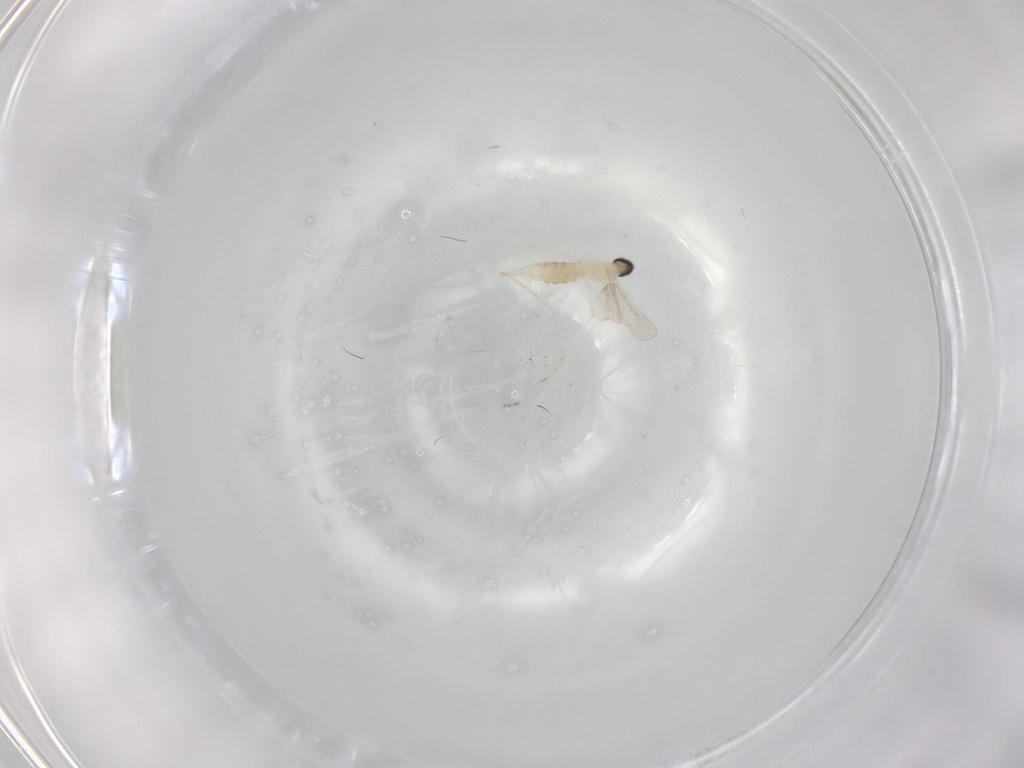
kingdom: Animalia
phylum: Arthropoda
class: Insecta
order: Diptera
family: Cecidomyiidae
